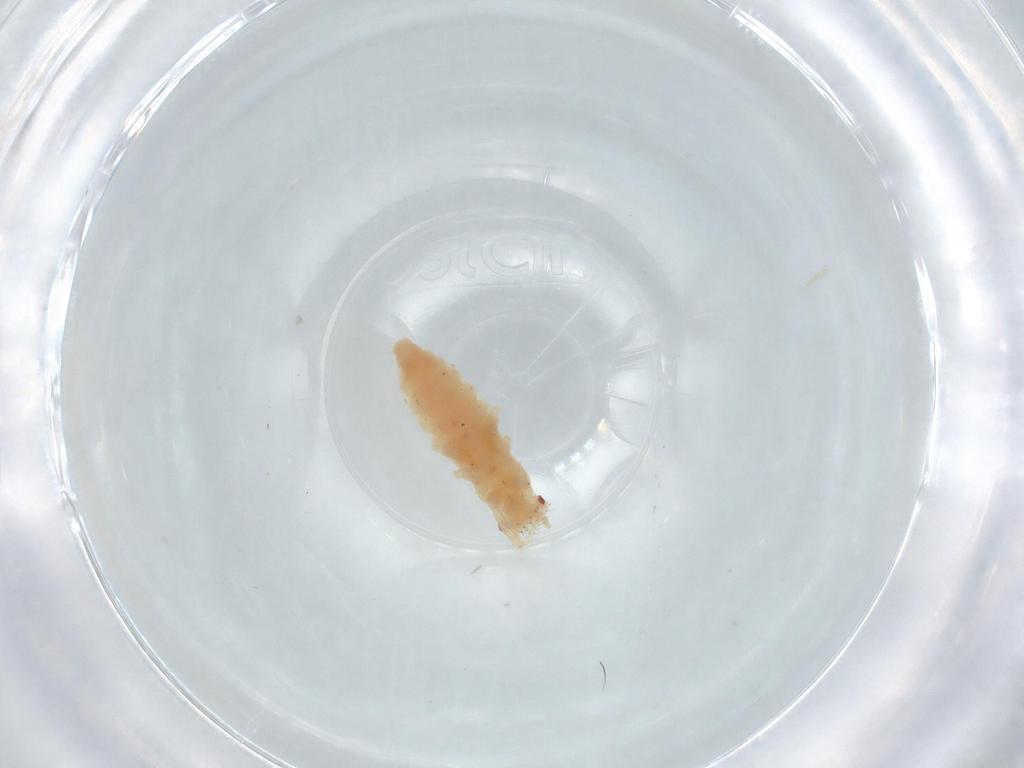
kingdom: Animalia
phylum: Arthropoda
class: Insecta
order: Hemiptera
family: Aphididae
